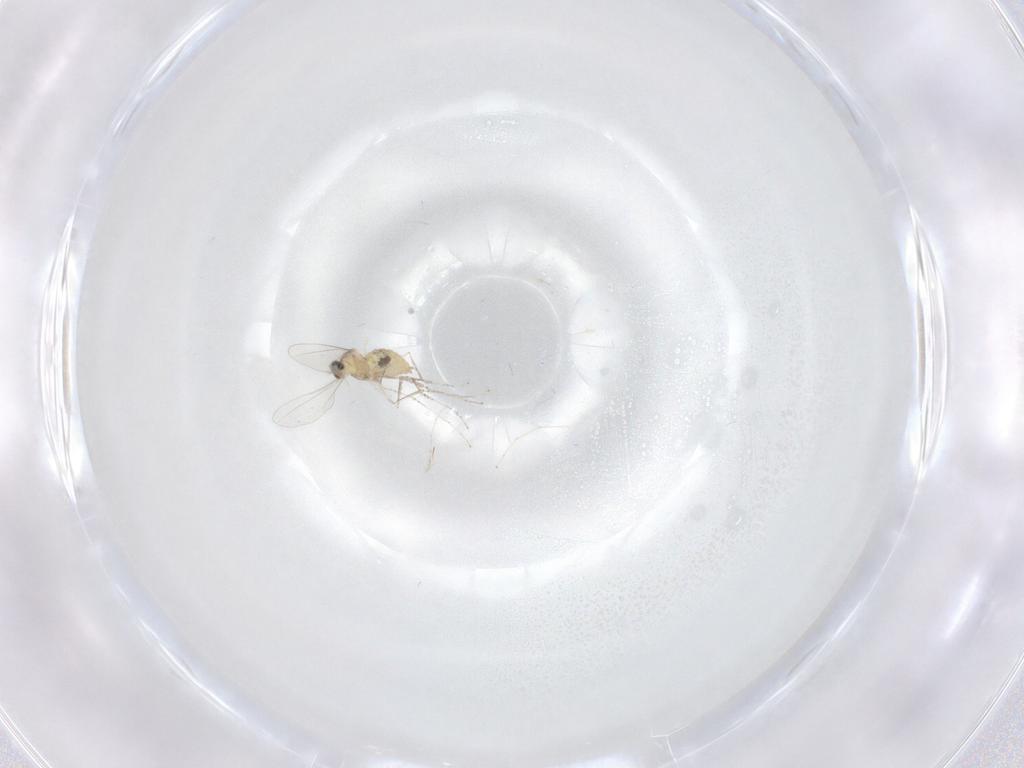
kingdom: Animalia
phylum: Arthropoda
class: Insecta
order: Diptera
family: Cecidomyiidae
